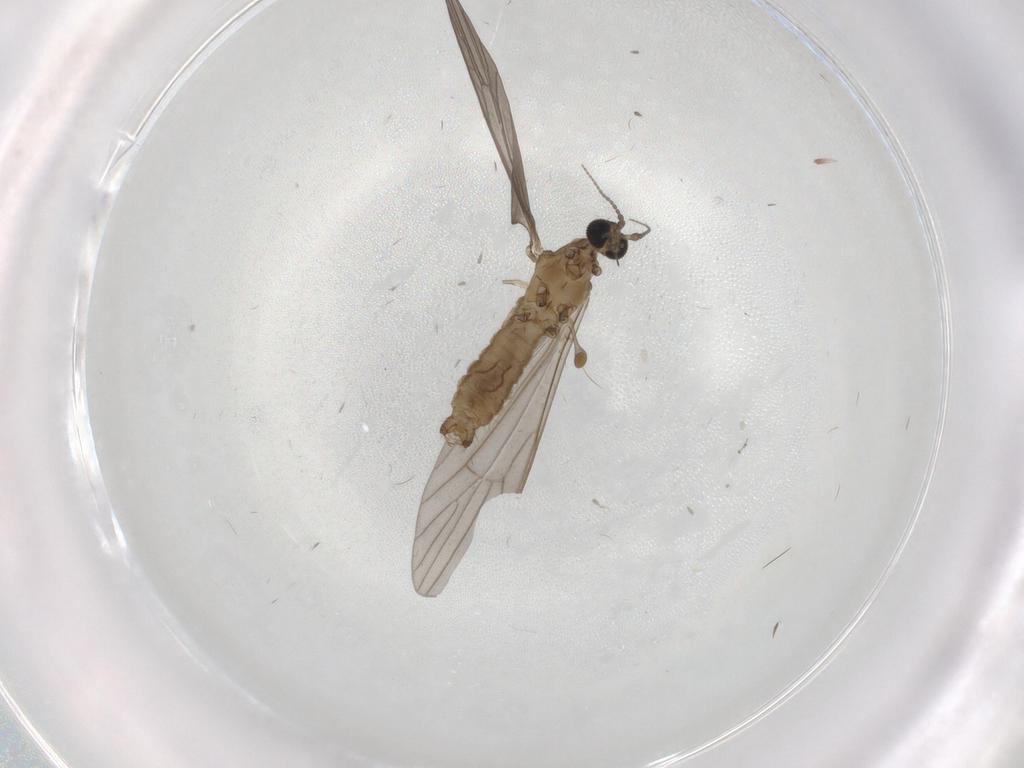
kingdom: Animalia
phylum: Arthropoda
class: Insecta
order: Diptera
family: Limoniidae
